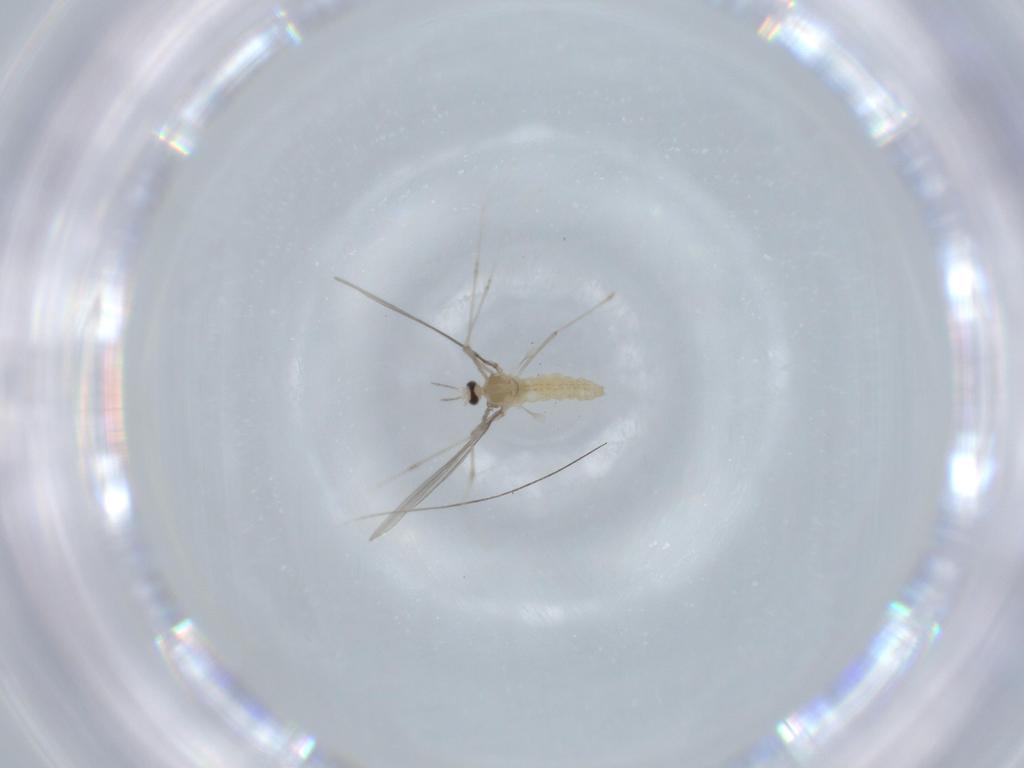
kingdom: Animalia
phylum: Arthropoda
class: Insecta
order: Diptera
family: Cecidomyiidae
